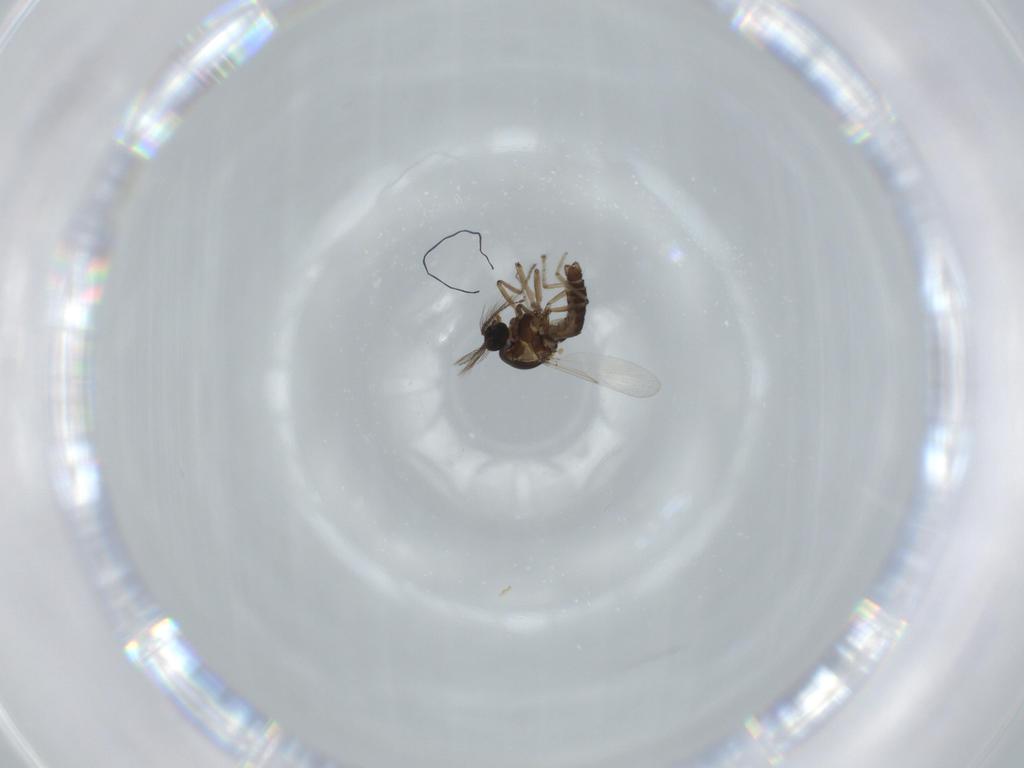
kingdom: Animalia
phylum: Arthropoda
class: Insecta
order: Diptera
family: Ceratopogonidae
